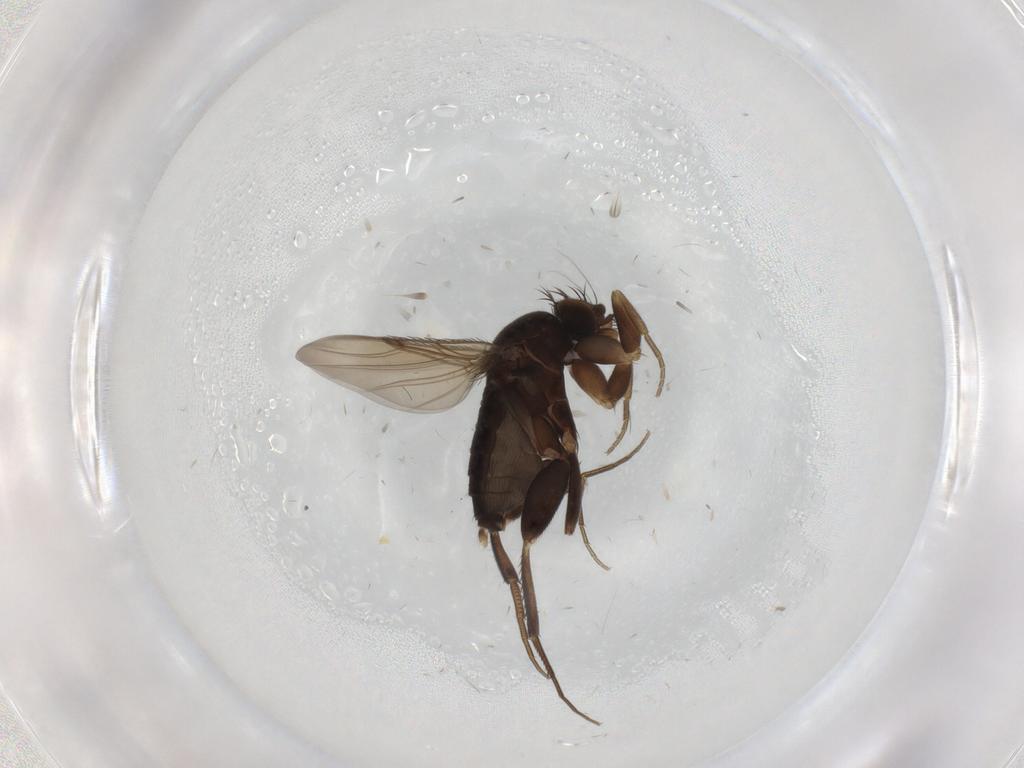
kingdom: Animalia
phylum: Arthropoda
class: Insecta
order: Diptera
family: Phoridae
